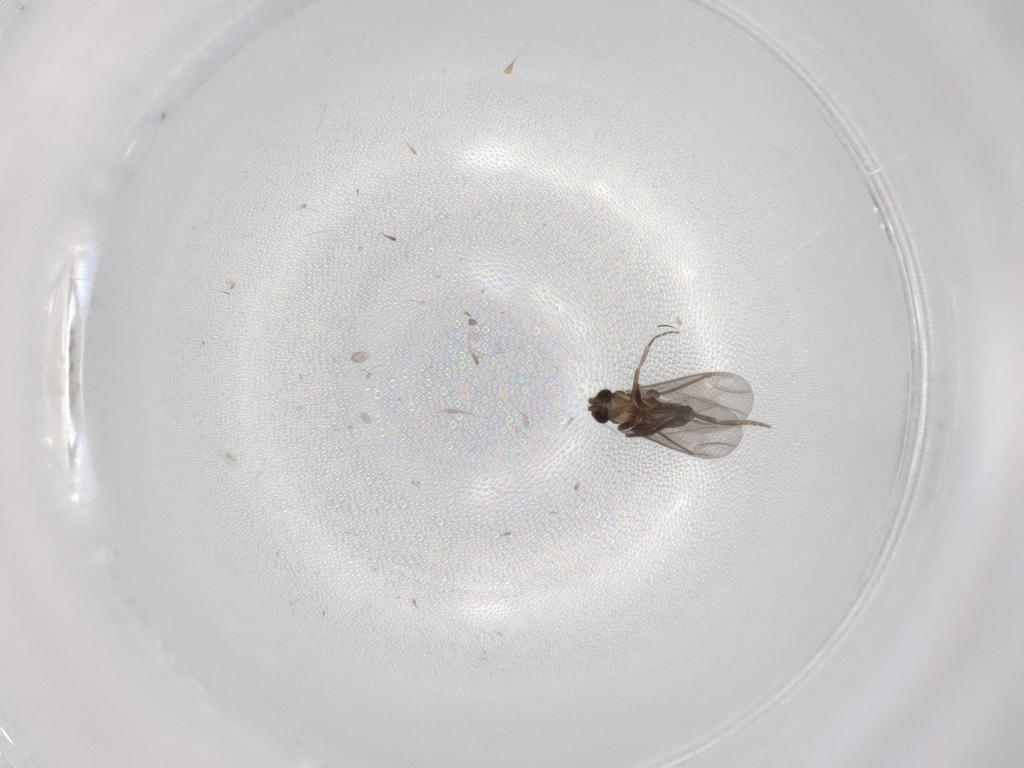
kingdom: Animalia
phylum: Arthropoda
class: Insecta
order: Diptera
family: Phoridae
